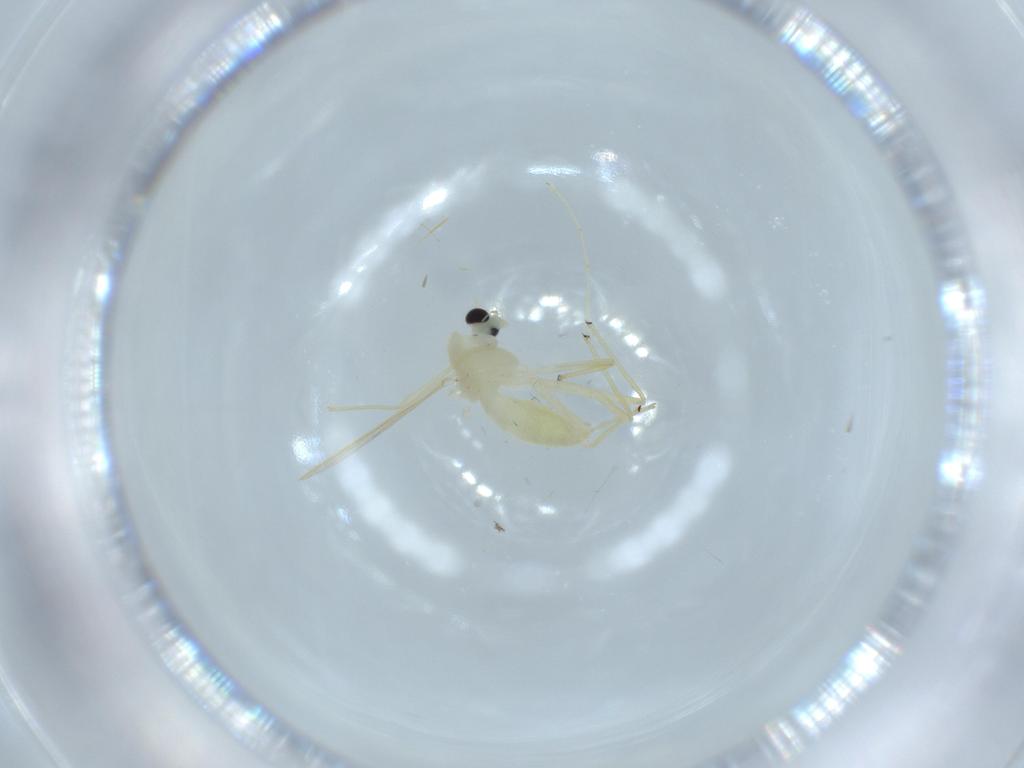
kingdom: Animalia
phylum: Arthropoda
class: Insecta
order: Diptera
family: Chironomidae
